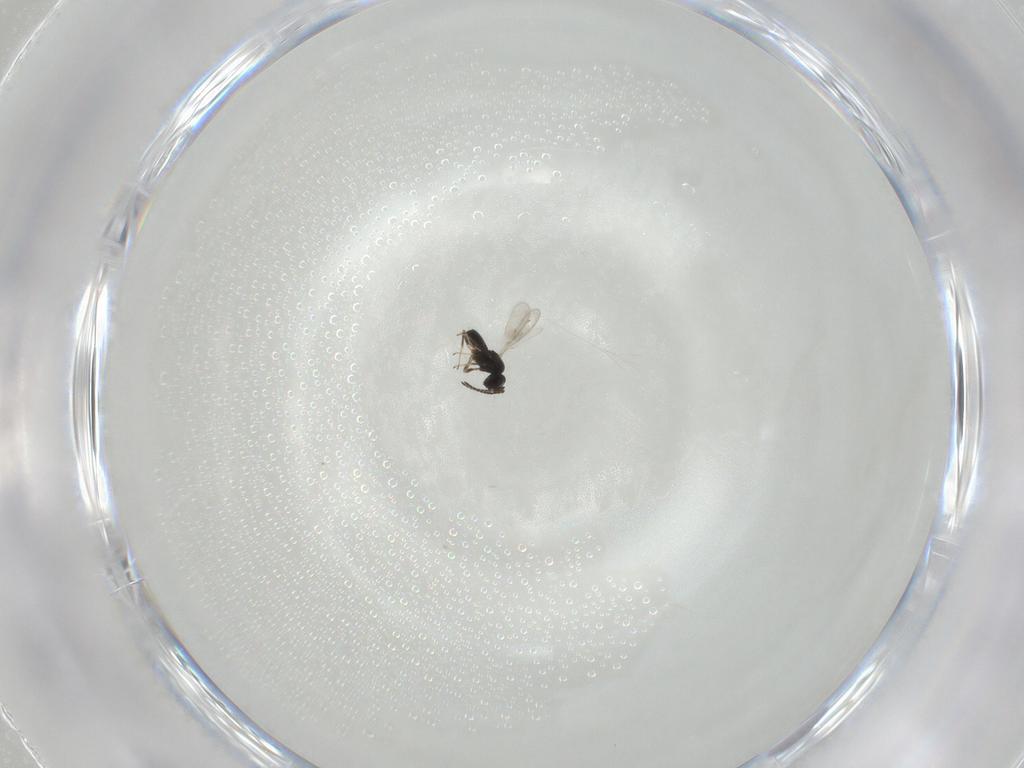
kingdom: Animalia
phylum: Arthropoda
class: Insecta
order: Hymenoptera
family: Scelionidae
